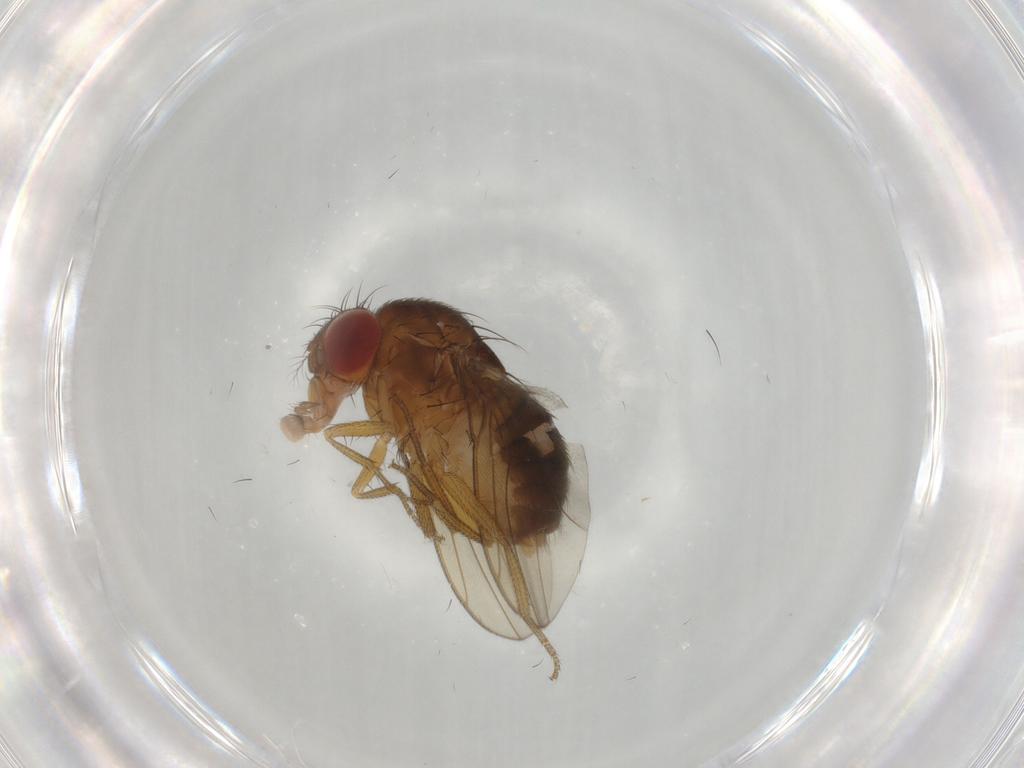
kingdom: Animalia
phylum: Arthropoda
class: Insecta
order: Diptera
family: Drosophilidae
